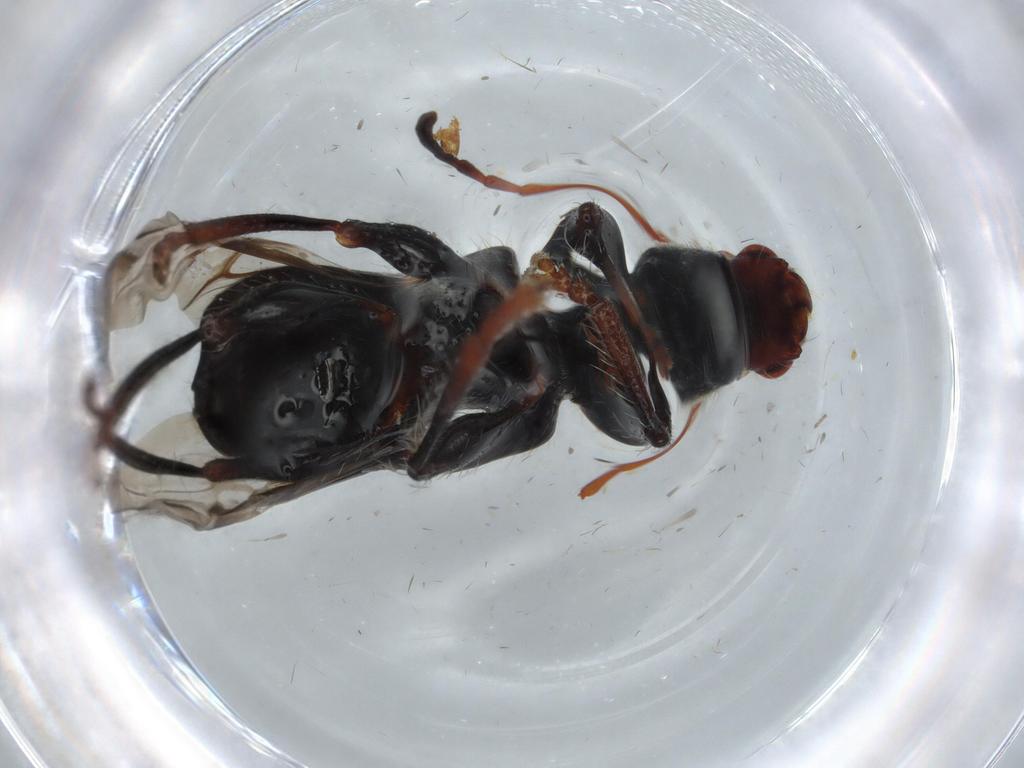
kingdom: Animalia
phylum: Arthropoda
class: Insecta
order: Coleoptera
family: Cerambycidae
